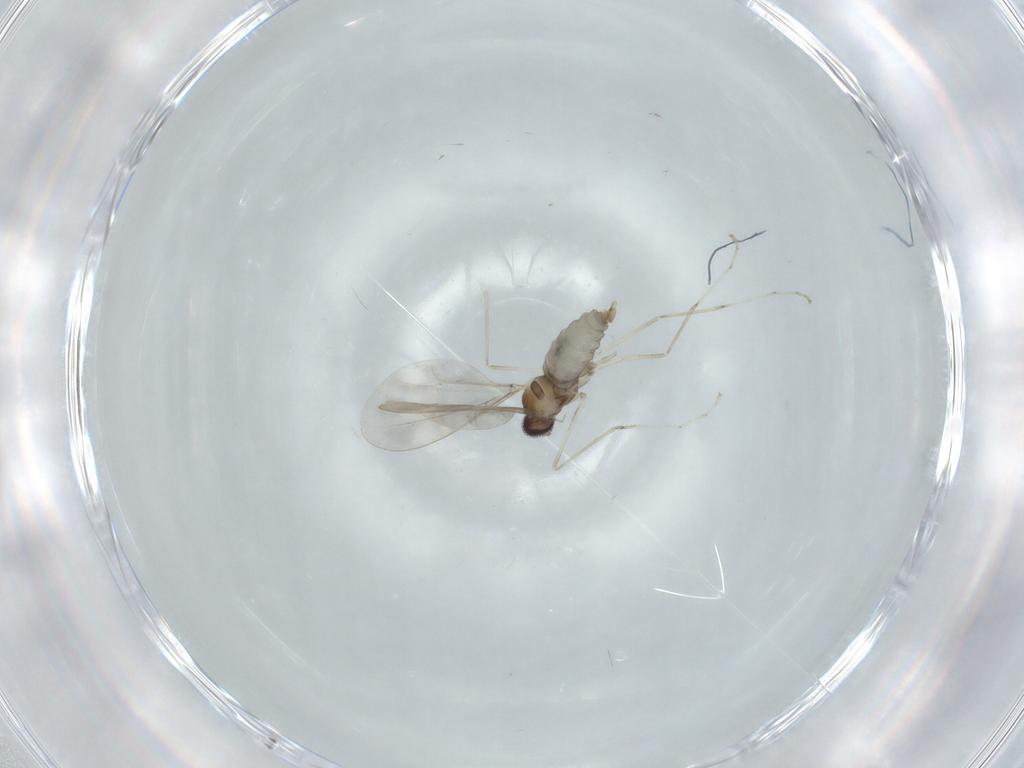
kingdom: Animalia
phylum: Arthropoda
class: Insecta
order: Diptera
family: Cecidomyiidae
